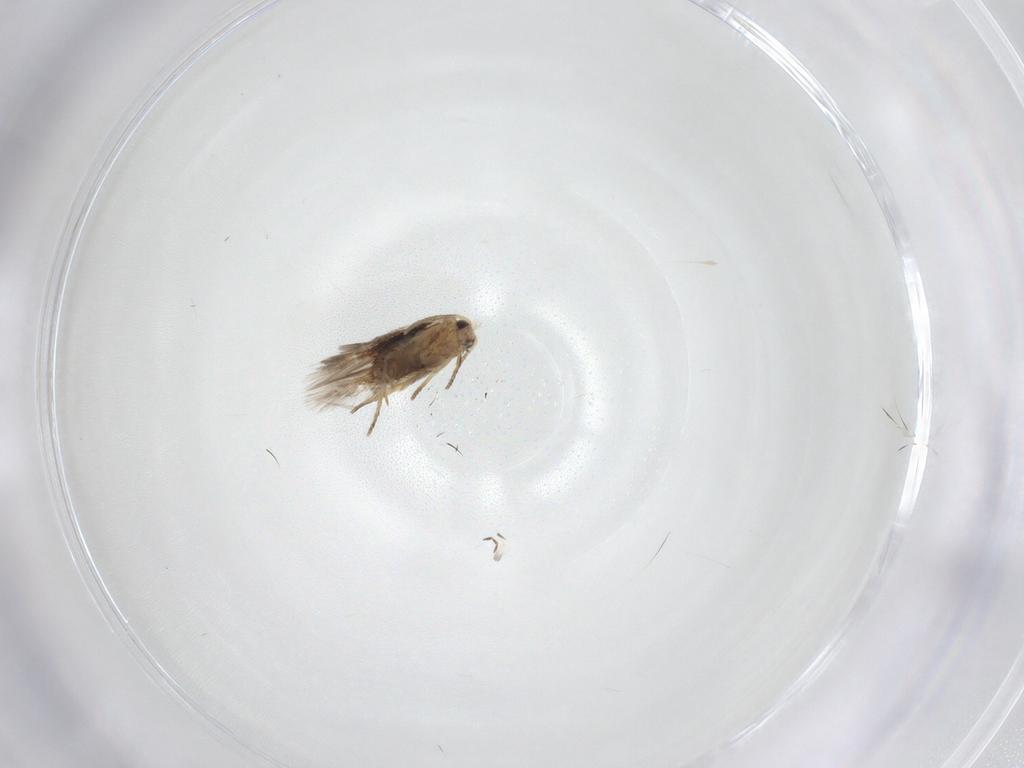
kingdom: Animalia
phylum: Arthropoda
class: Insecta
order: Lepidoptera
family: Nepticulidae
